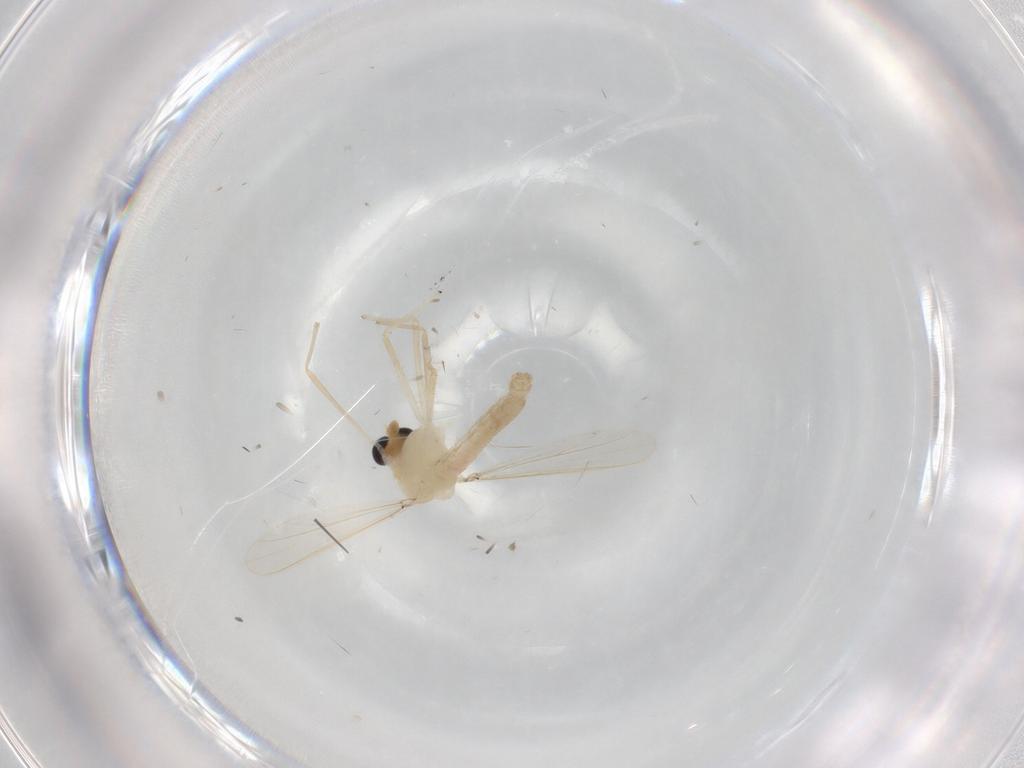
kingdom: Animalia
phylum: Arthropoda
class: Insecta
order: Diptera
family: Chironomidae
